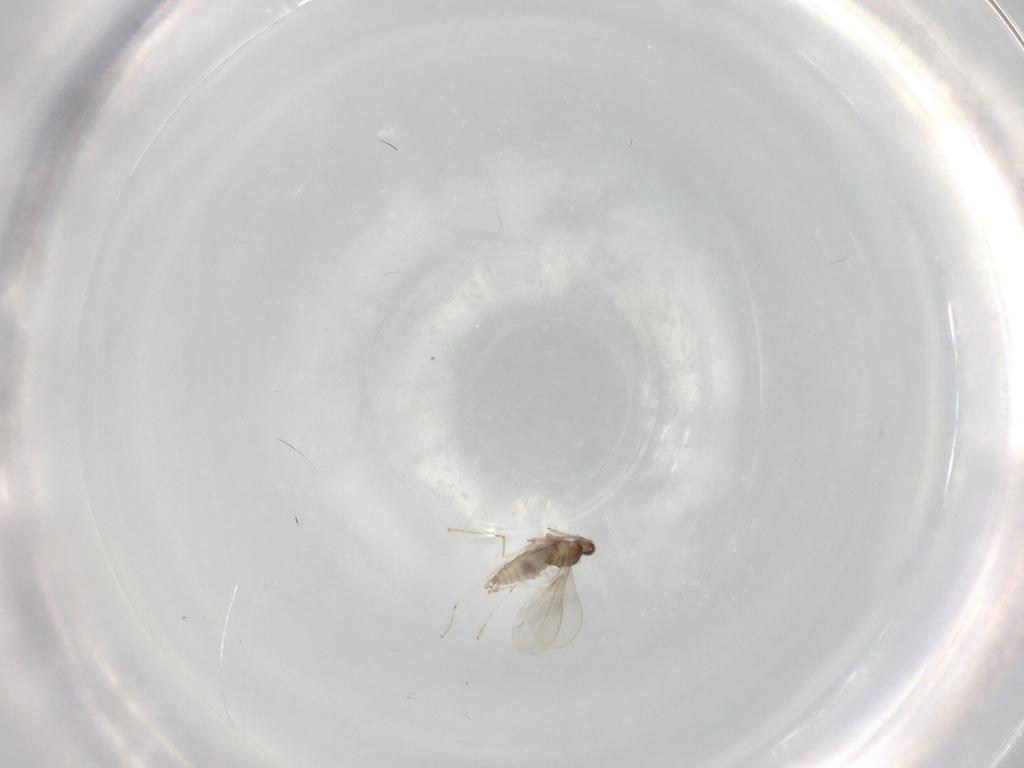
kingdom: Animalia
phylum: Arthropoda
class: Insecta
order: Diptera
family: Cecidomyiidae
